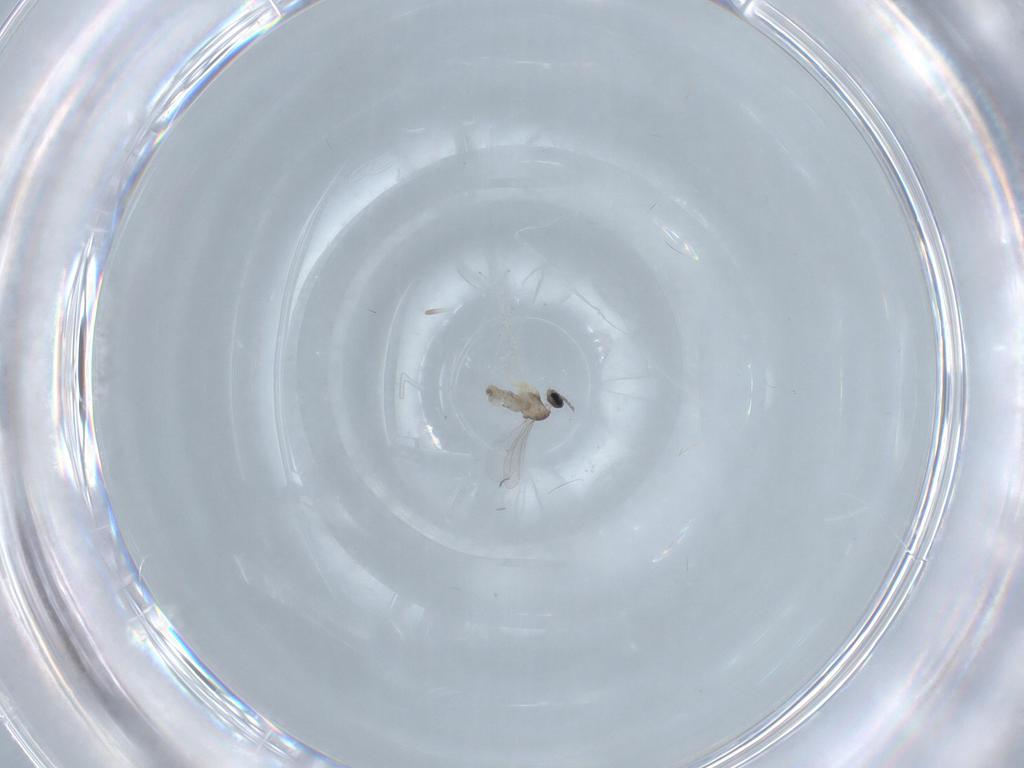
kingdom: Animalia
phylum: Arthropoda
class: Insecta
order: Diptera
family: Cecidomyiidae
